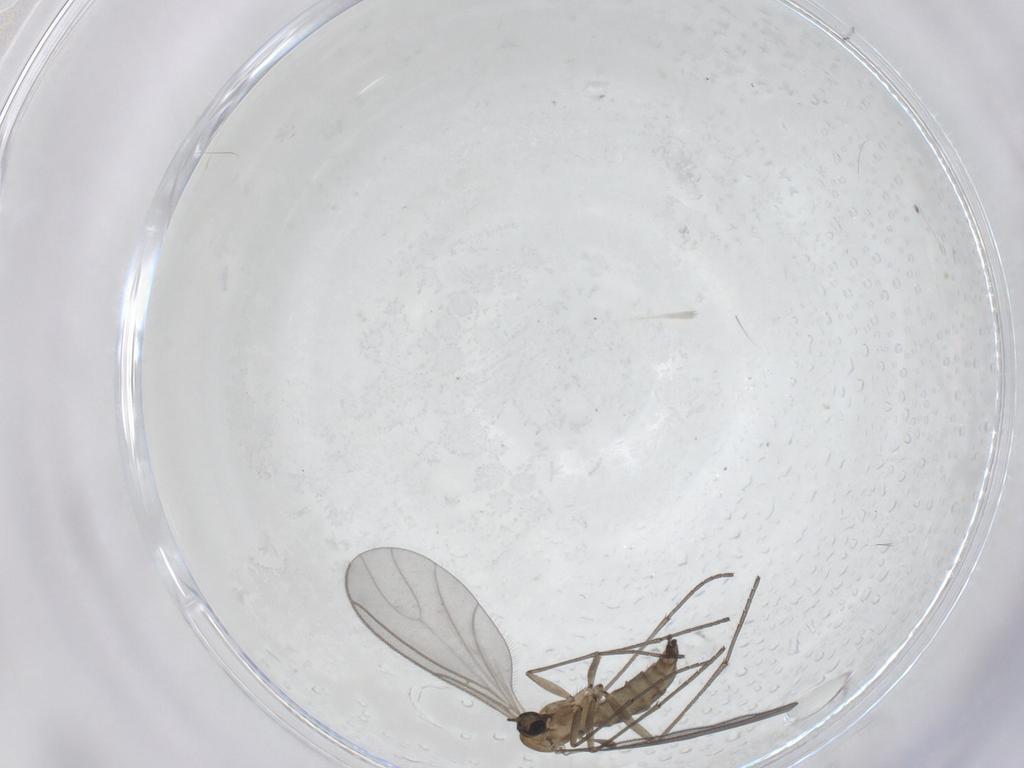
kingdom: Animalia
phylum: Arthropoda
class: Insecta
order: Diptera
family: Sciaridae
